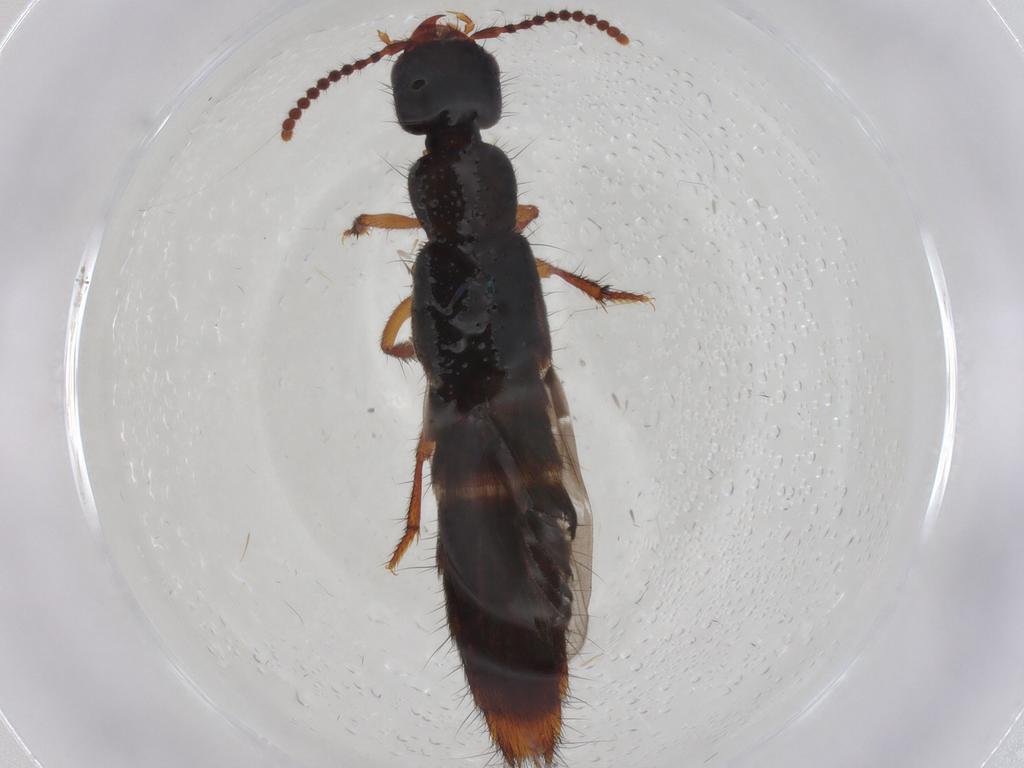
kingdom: Animalia
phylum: Arthropoda
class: Insecta
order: Coleoptera
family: Staphylinidae
